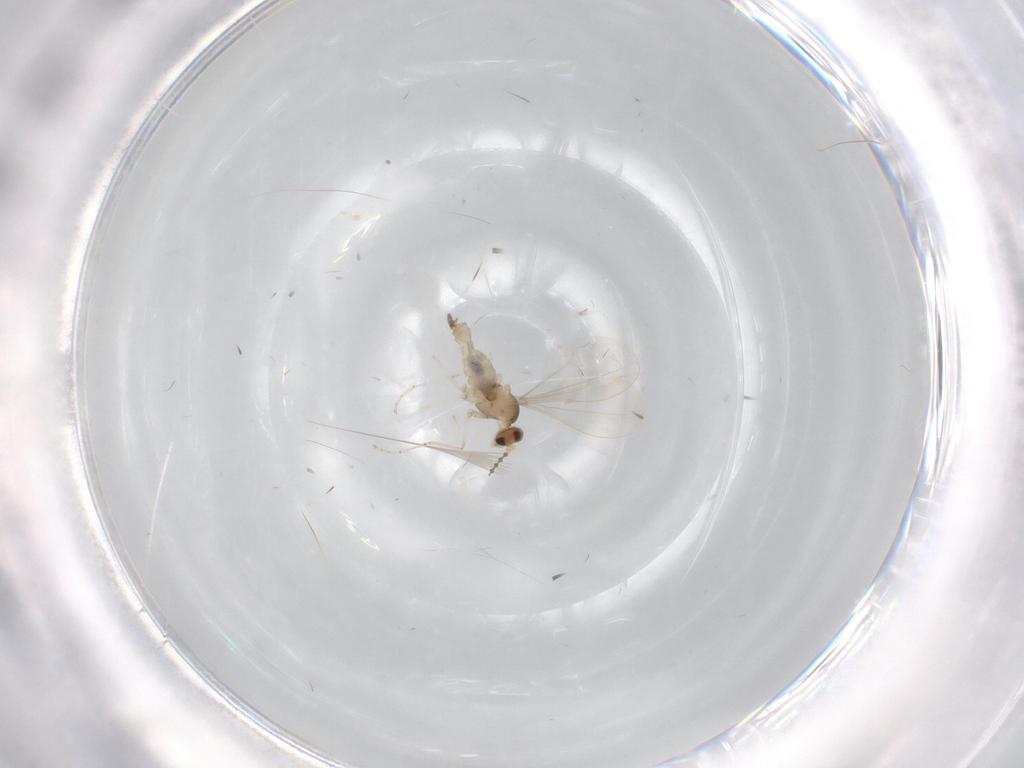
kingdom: Animalia
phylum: Arthropoda
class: Insecta
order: Diptera
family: Cecidomyiidae
